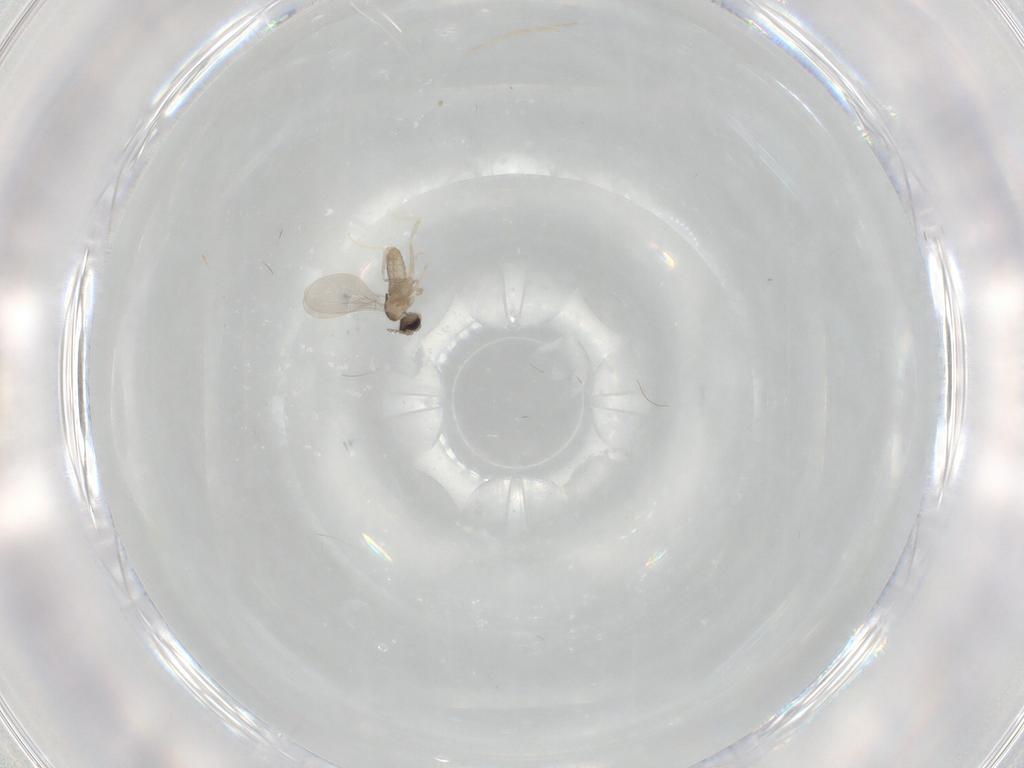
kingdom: Animalia
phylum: Arthropoda
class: Insecta
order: Diptera
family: Cecidomyiidae
